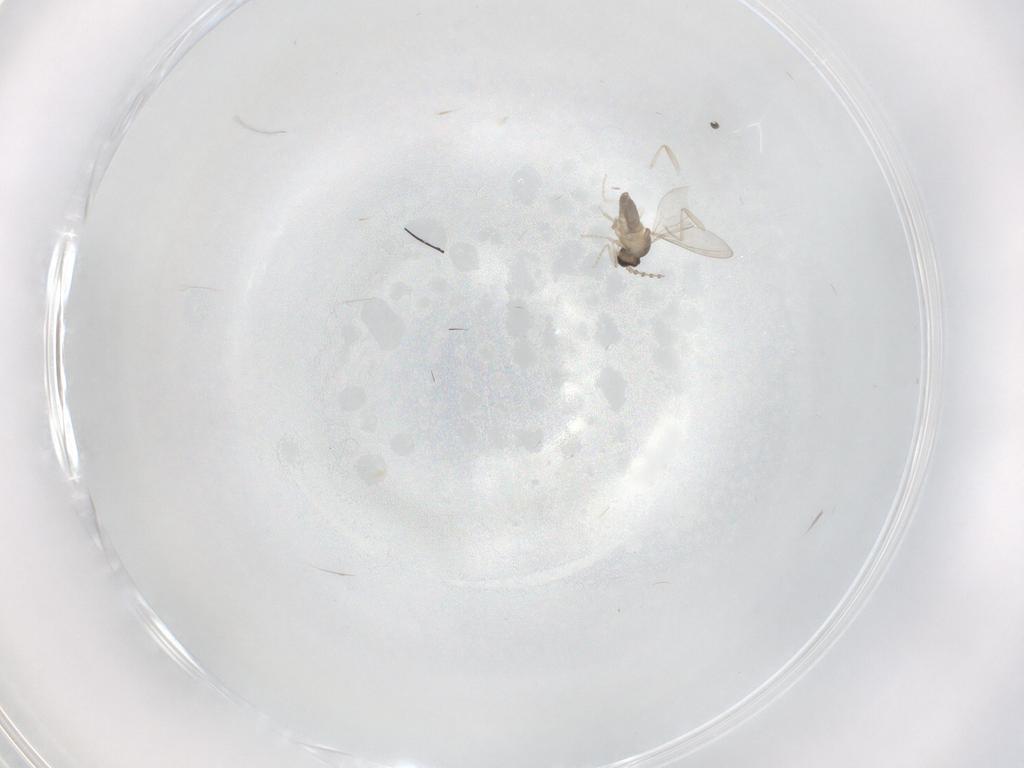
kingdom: Animalia
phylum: Arthropoda
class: Insecta
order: Diptera
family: Cecidomyiidae
